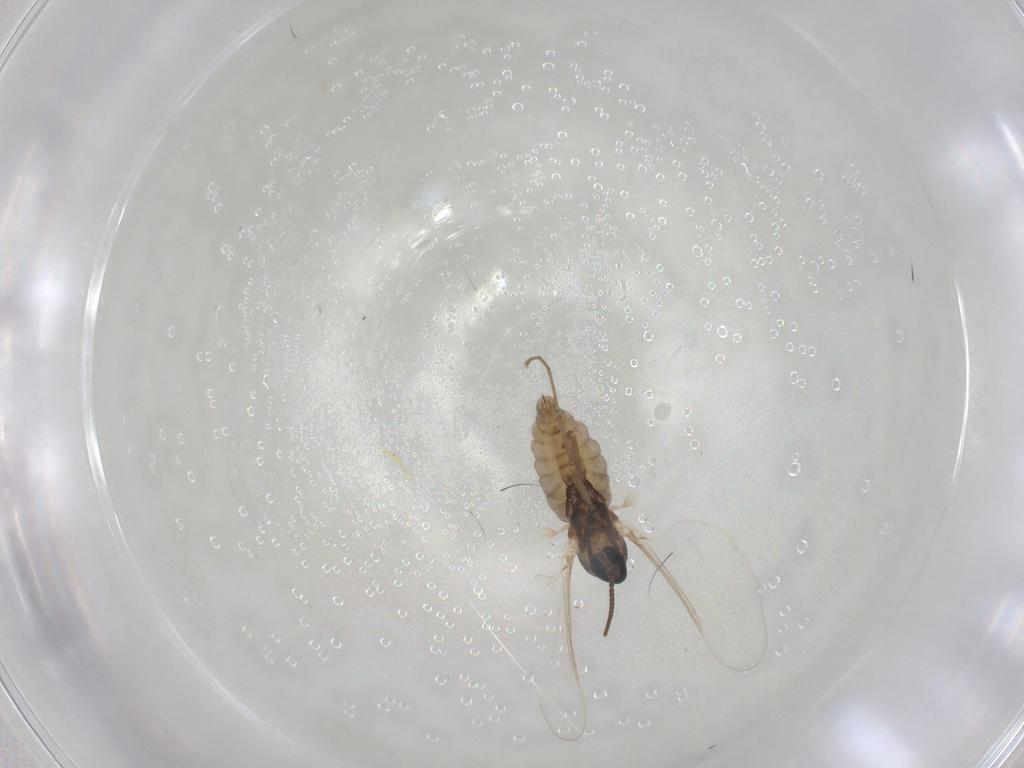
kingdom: Animalia
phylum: Arthropoda
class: Insecta
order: Diptera
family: Cecidomyiidae
